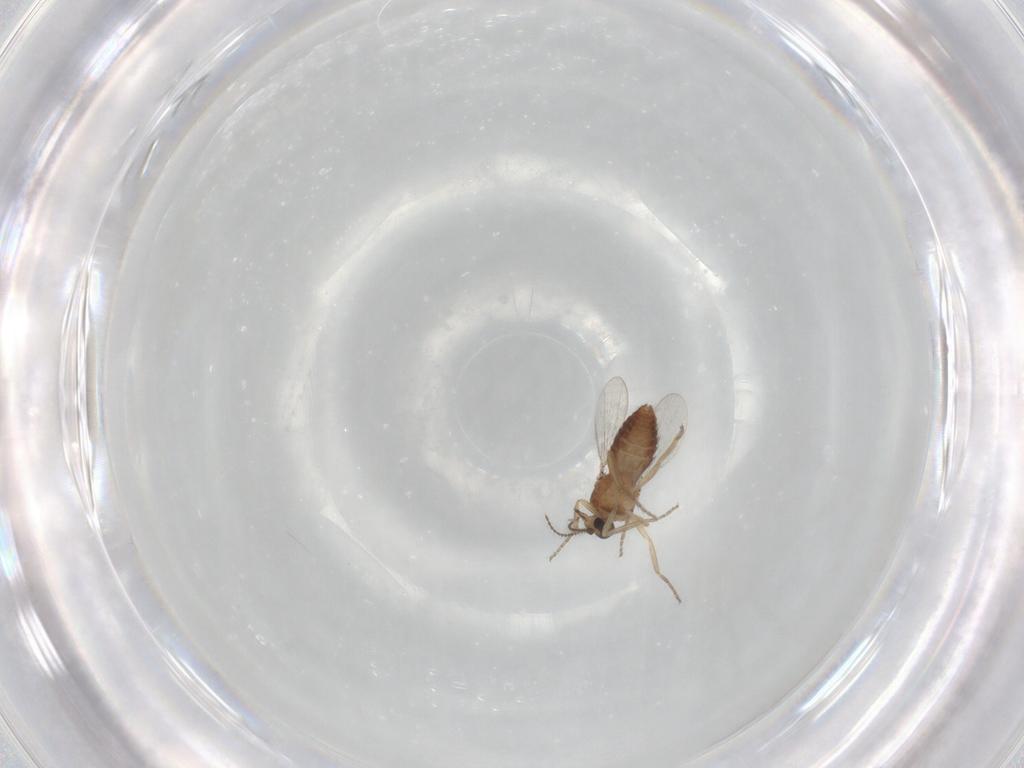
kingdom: Animalia
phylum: Arthropoda
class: Insecta
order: Diptera
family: Ceratopogonidae
